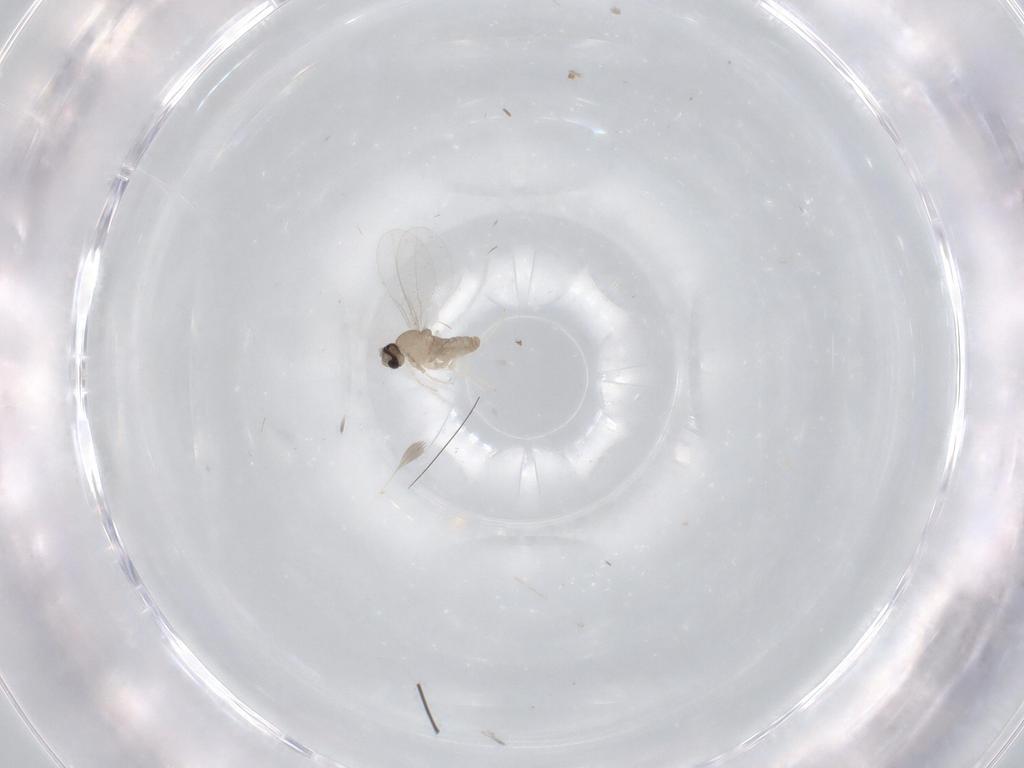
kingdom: Animalia
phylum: Arthropoda
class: Insecta
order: Diptera
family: Cecidomyiidae
